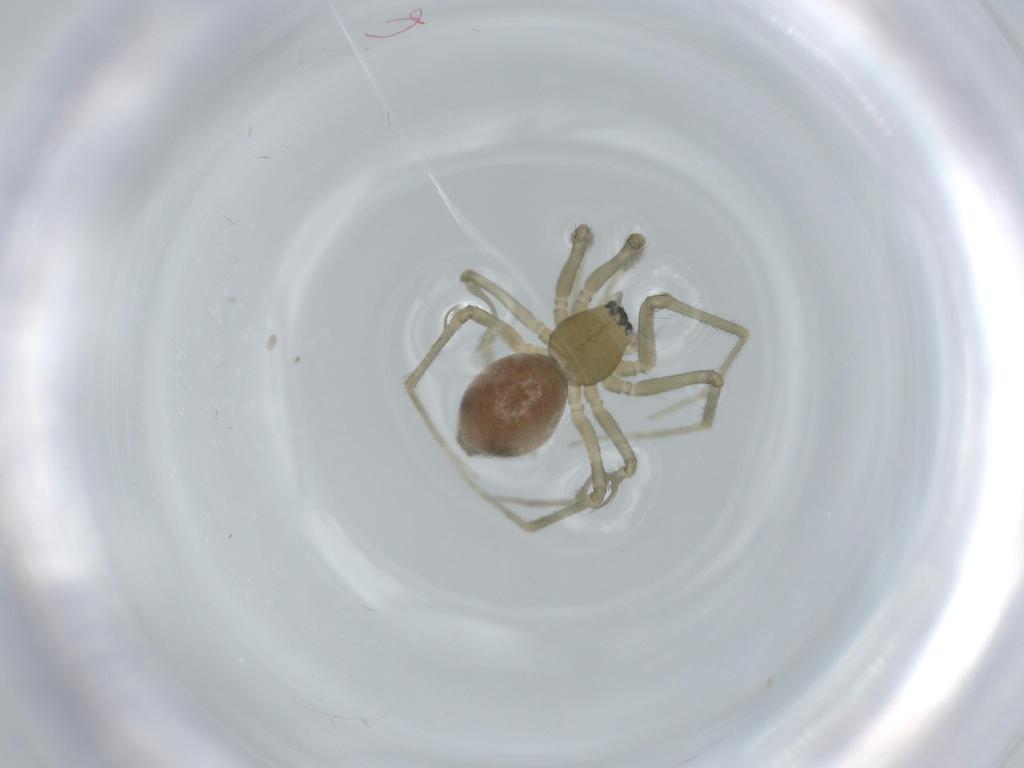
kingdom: Animalia
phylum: Arthropoda
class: Arachnida
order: Araneae
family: Linyphiidae
